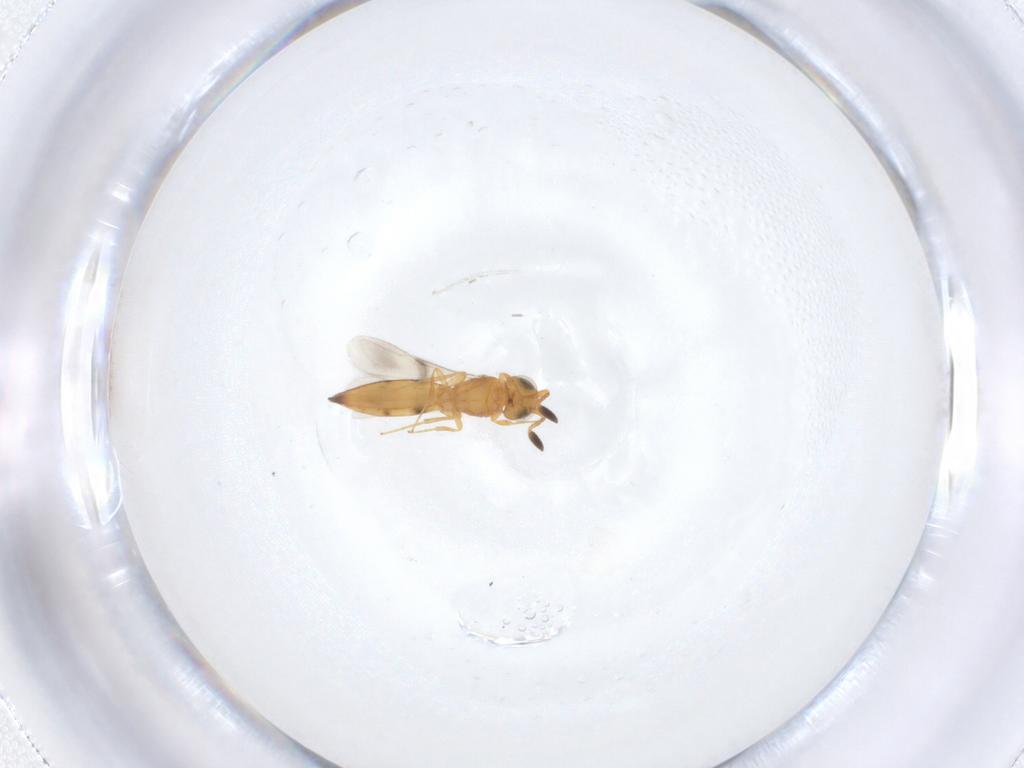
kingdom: Animalia
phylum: Arthropoda
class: Insecta
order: Hymenoptera
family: Scelionidae
